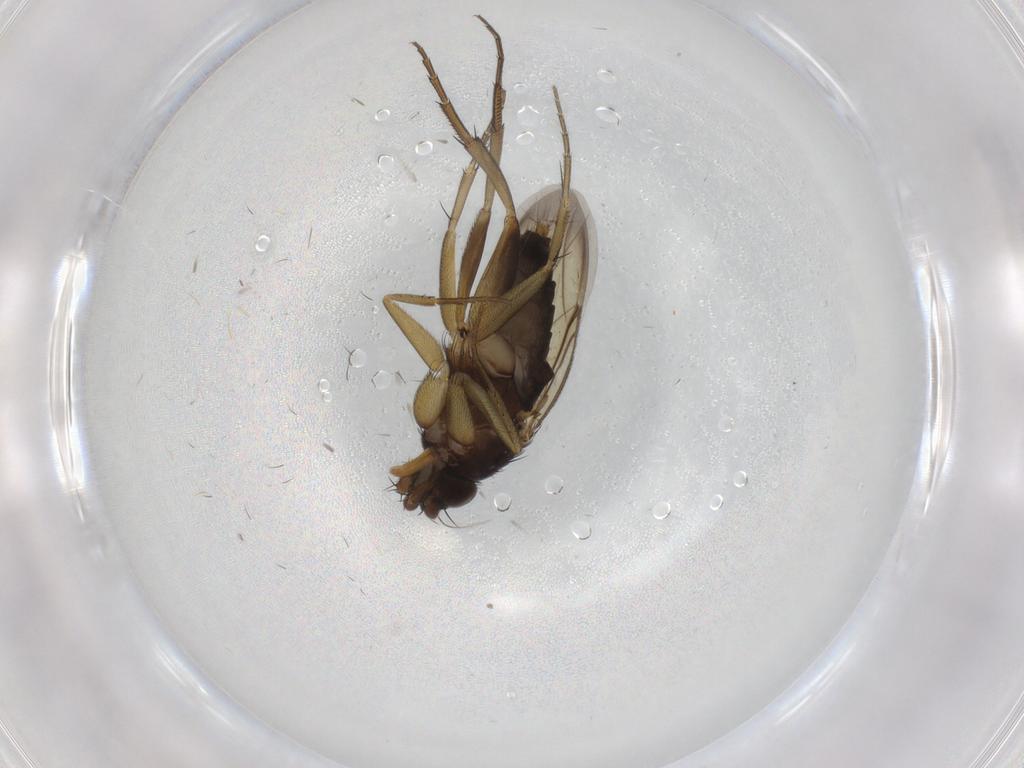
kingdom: Animalia
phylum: Arthropoda
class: Insecta
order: Diptera
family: Phoridae
